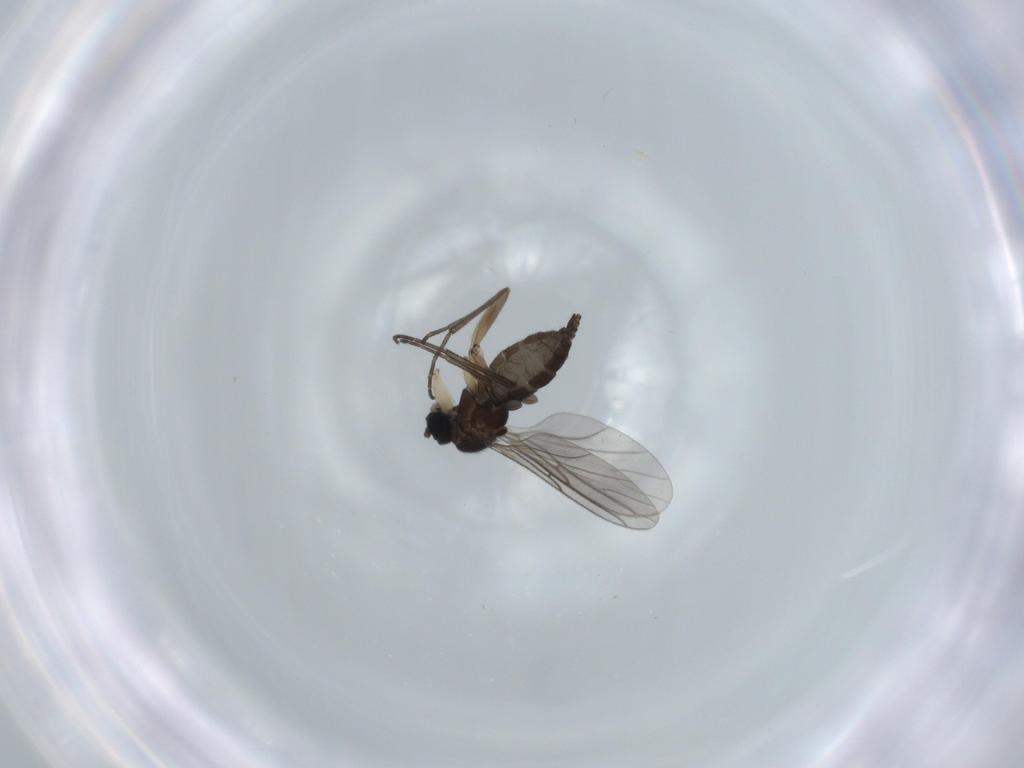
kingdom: Animalia
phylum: Arthropoda
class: Insecta
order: Diptera
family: Sciaridae
